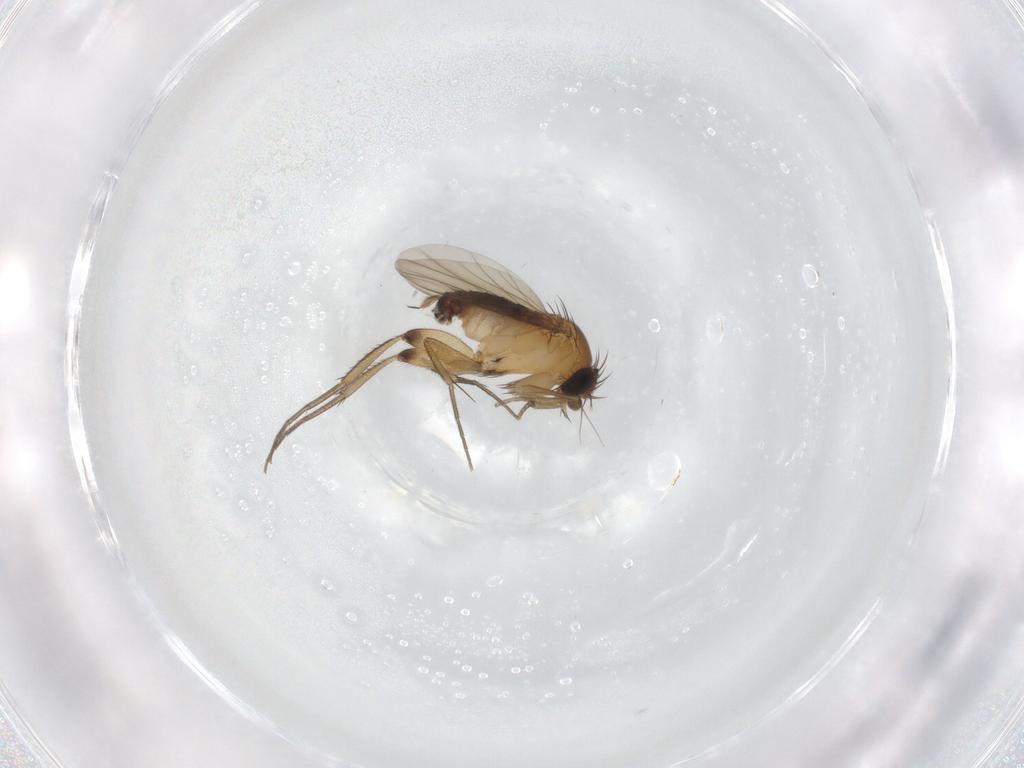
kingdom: Animalia
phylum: Arthropoda
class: Insecta
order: Diptera
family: Phoridae
